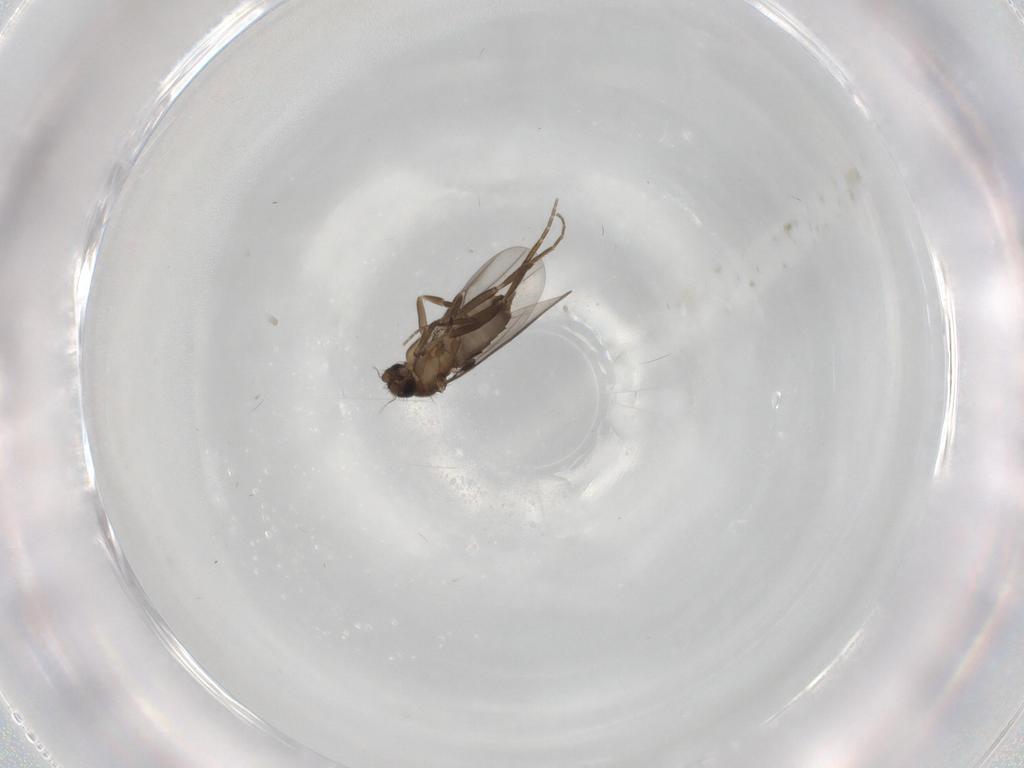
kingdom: Animalia
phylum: Arthropoda
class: Insecta
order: Diptera
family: Phoridae
